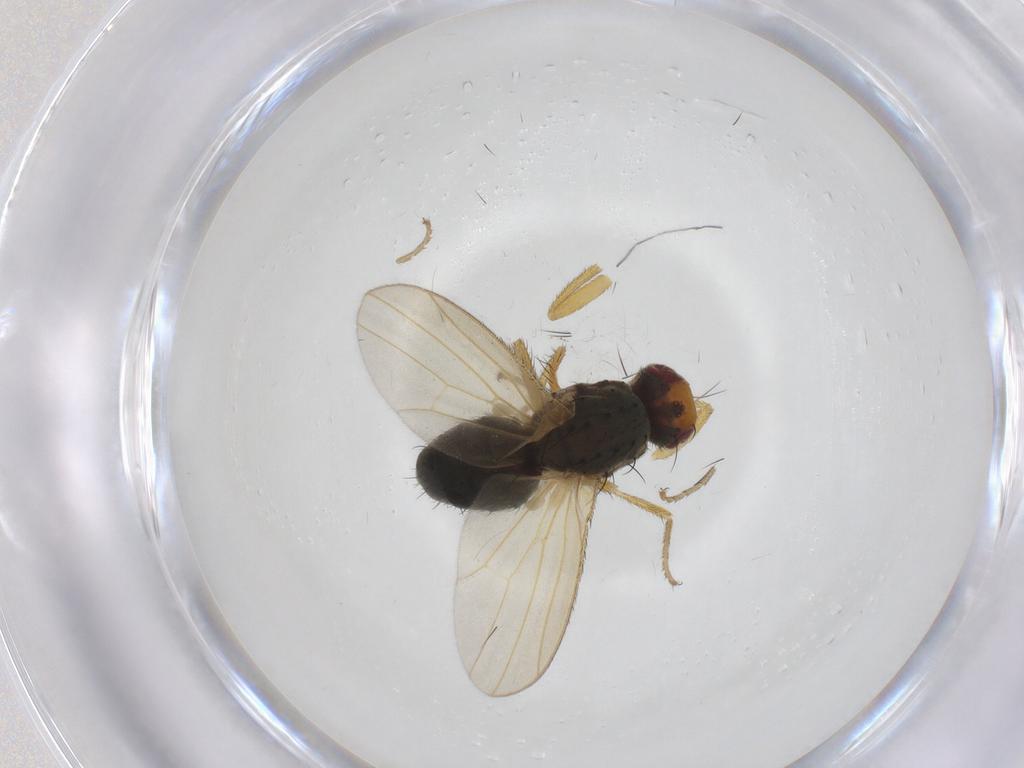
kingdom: Animalia
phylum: Arthropoda
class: Insecta
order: Diptera
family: Heleomyzidae
